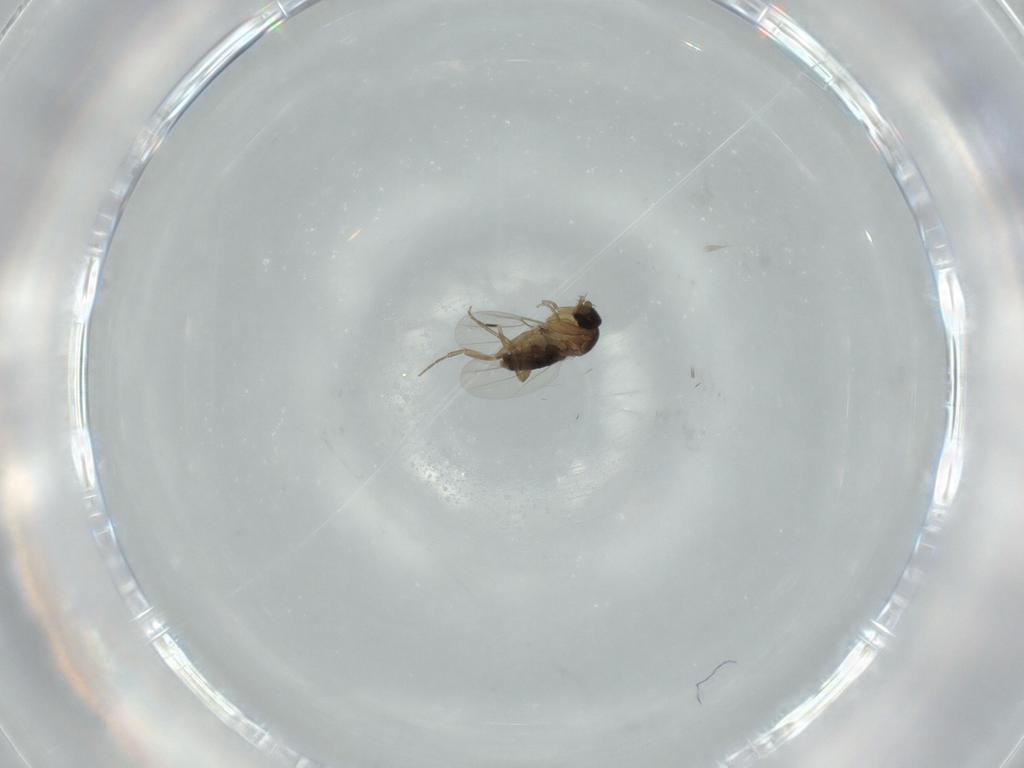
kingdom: Animalia
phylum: Arthropoda
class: Insecta
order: Diptera
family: Phoridae
